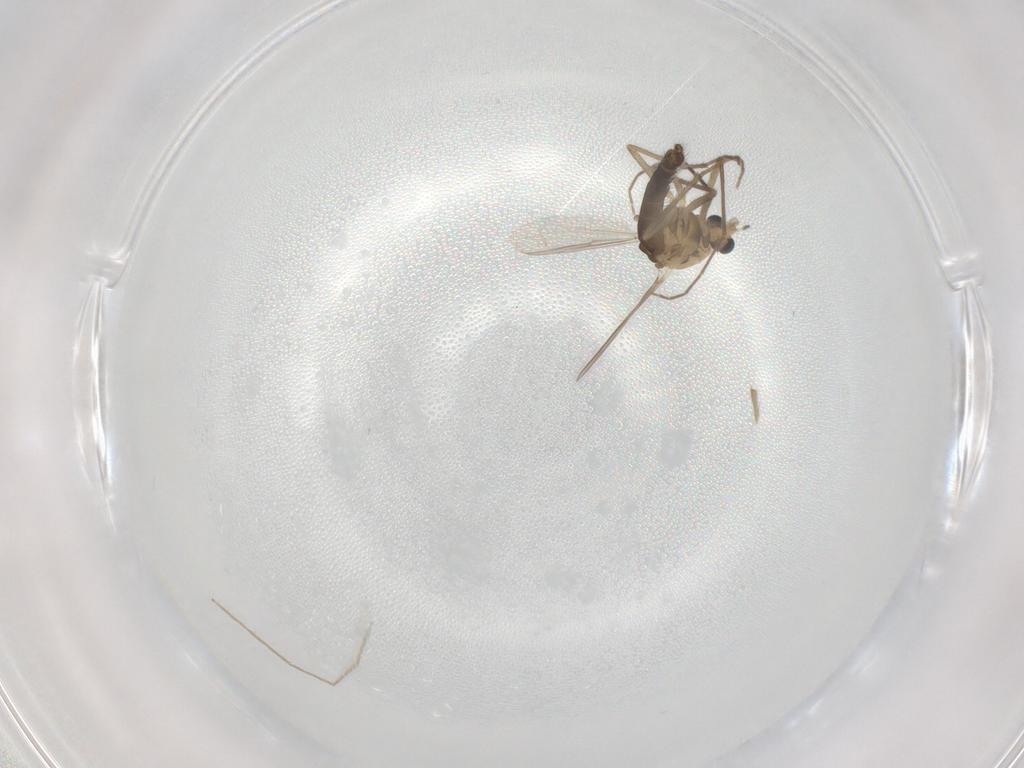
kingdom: Animalia
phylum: Arthropoda
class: Insecta
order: Diptera
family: Chironomidae
